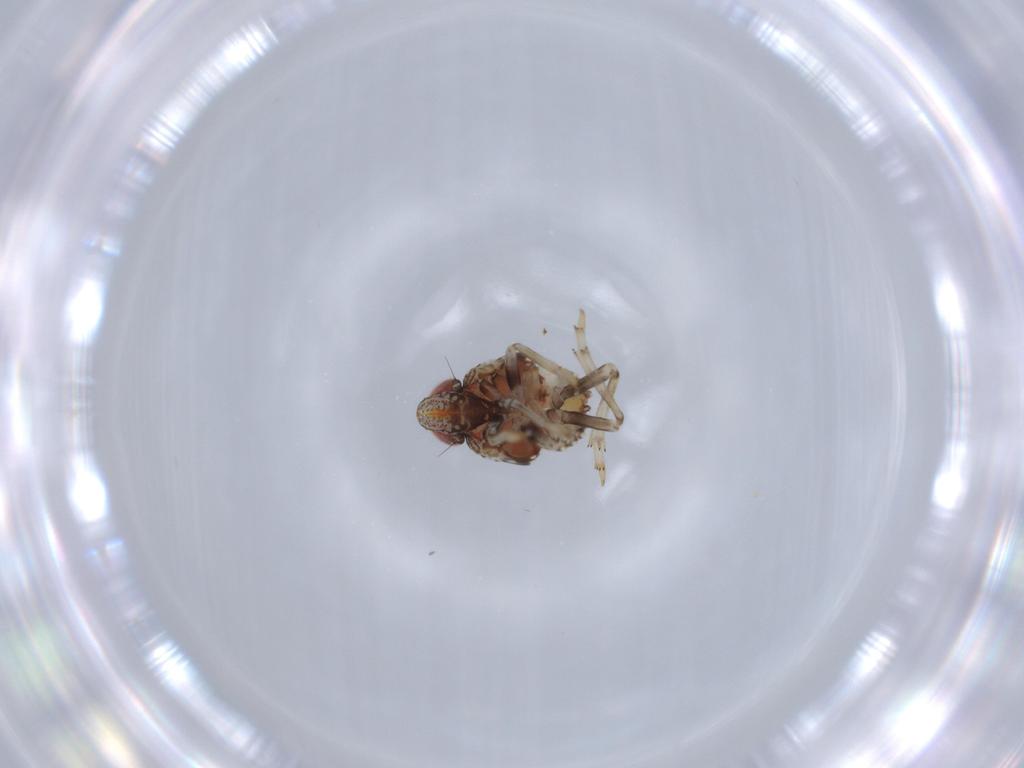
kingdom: Animalia
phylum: Arthropoda
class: Insecta
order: Hemiptera
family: Issidae
